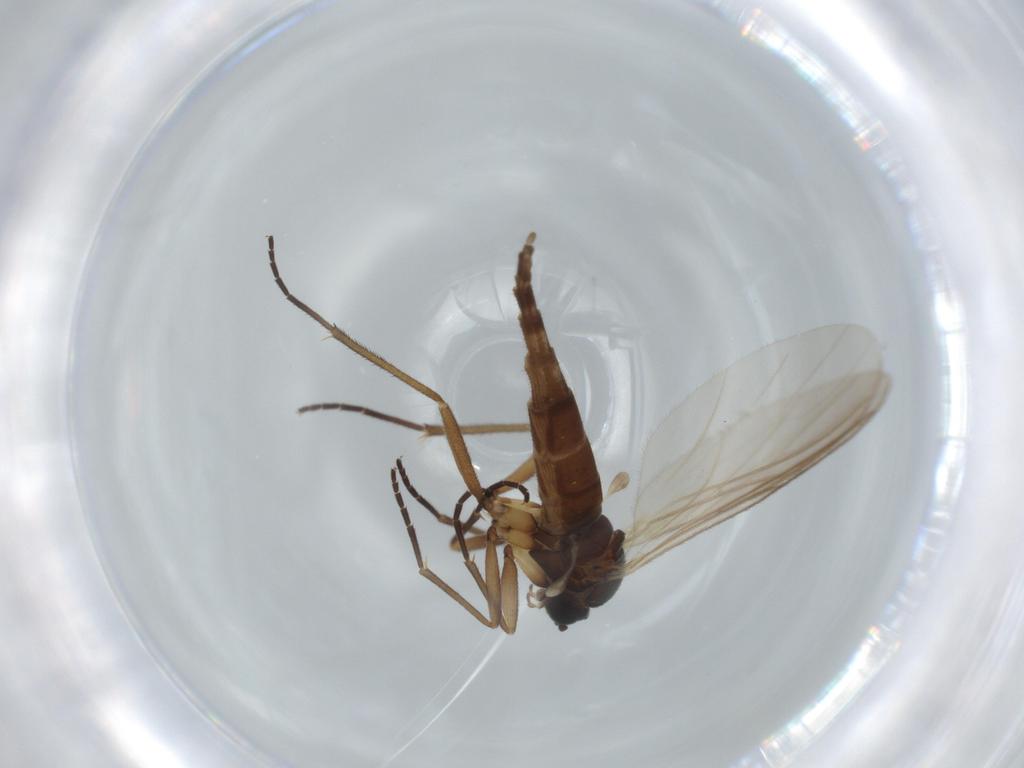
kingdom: Animalia
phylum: Arthropoda
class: Insecta
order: Diptera
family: Sciaridae
